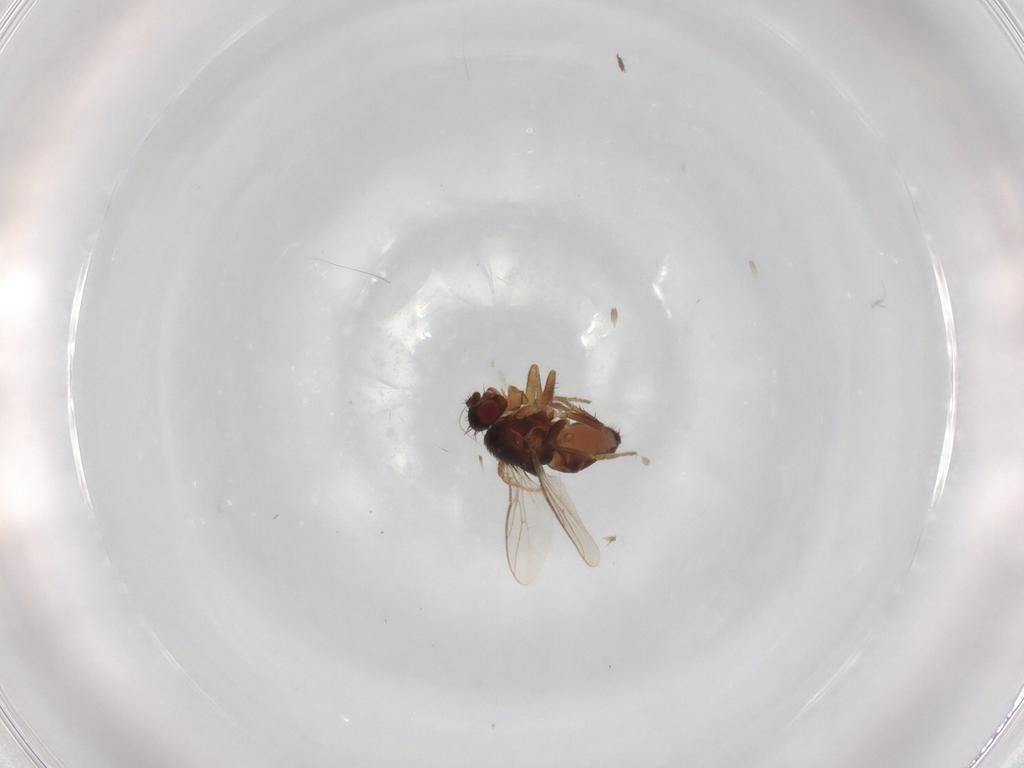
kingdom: Animalia
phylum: Arthropoda
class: Insecta
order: Diptera
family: Sphaeroceridae
